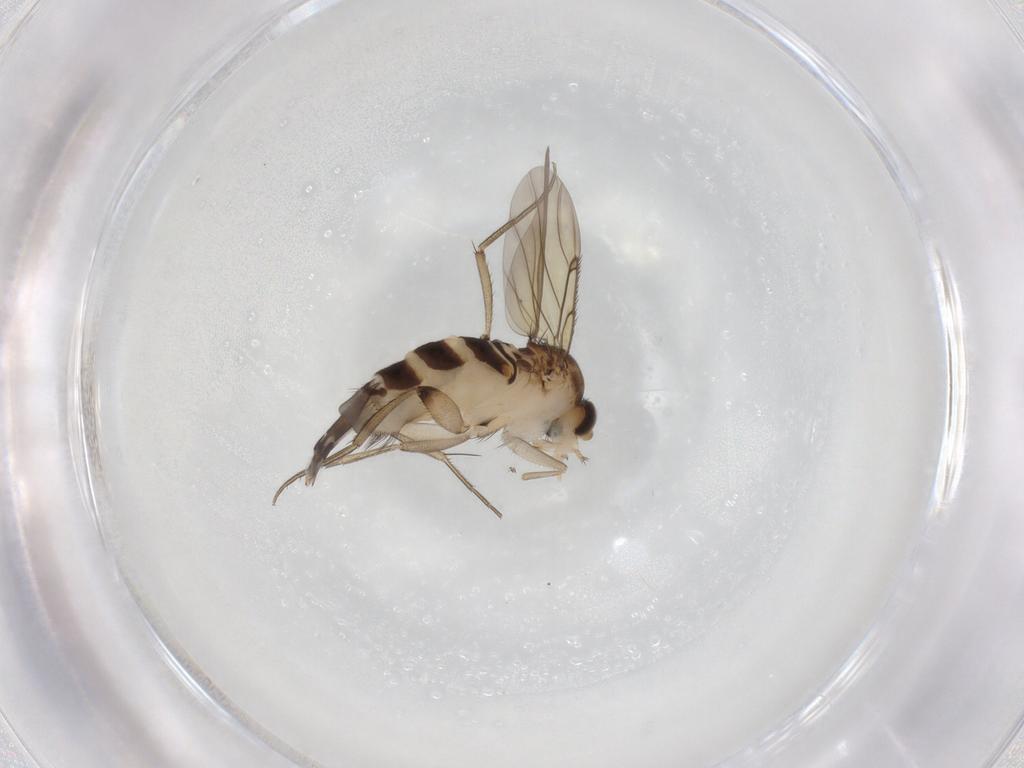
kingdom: Animalia
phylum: Arthropoda
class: Insecta
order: Diptera
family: Phoridae
